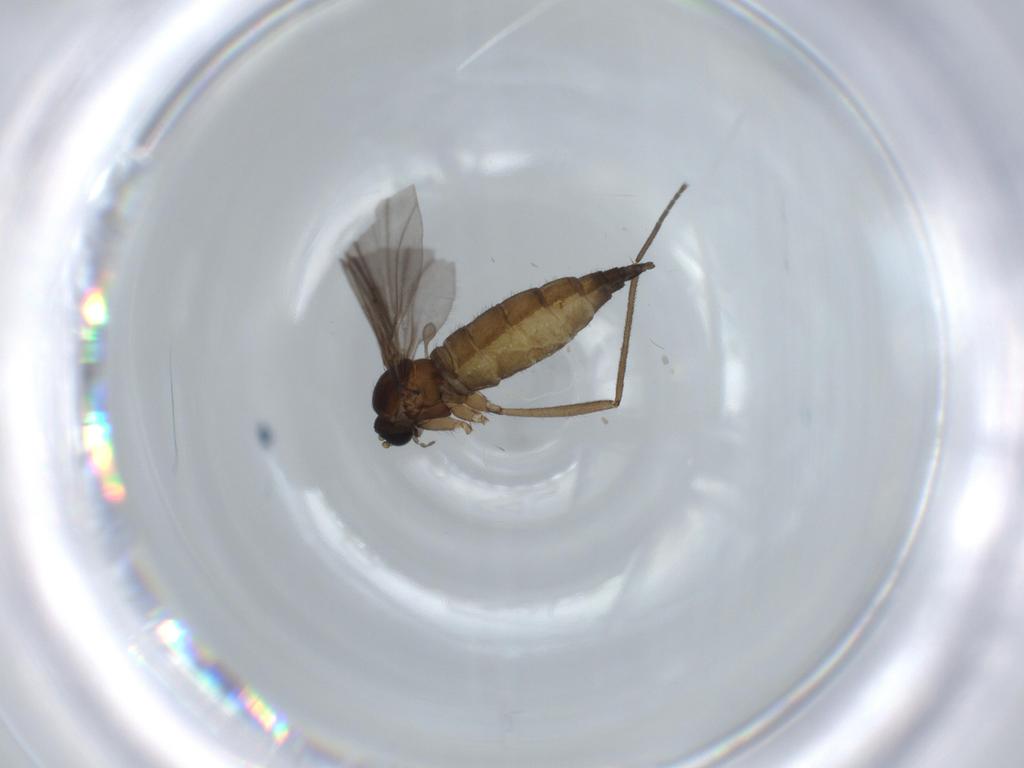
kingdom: Animalia
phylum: Arthropoda
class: Insecta
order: Diptera
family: Sciaridae
